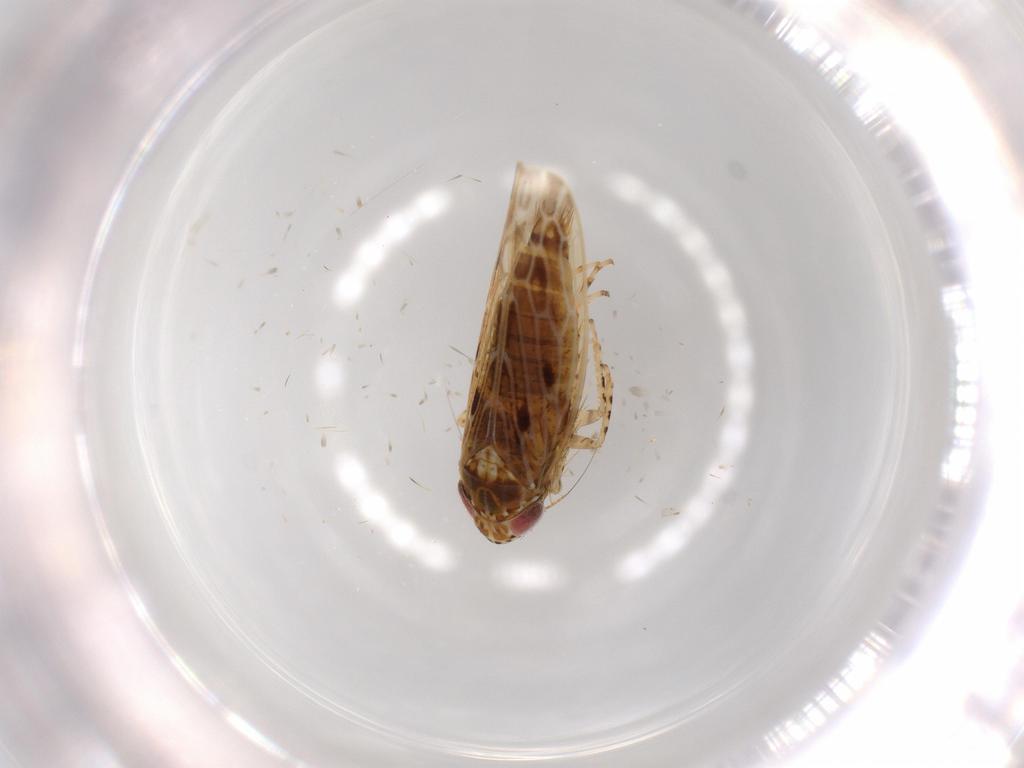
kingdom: Animalia
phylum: Arthropoda
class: Insecta
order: Hemiptera
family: Cicadellidae
